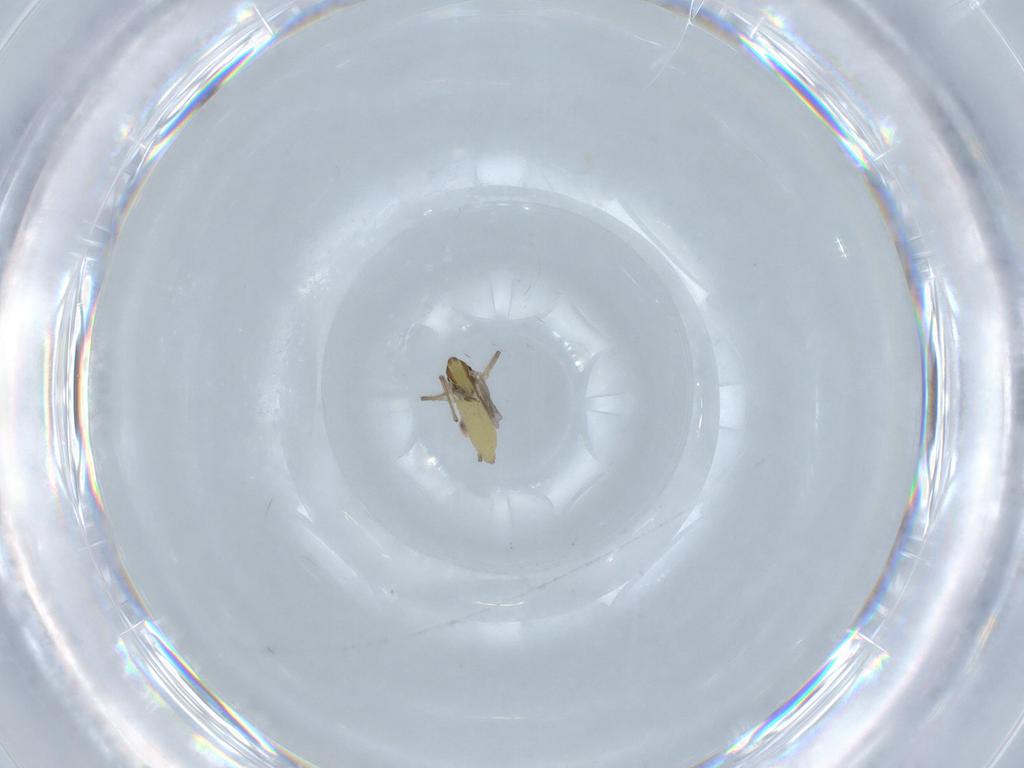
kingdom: Animalia
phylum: Arthropoda
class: Insecta
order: Diptera
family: Chironomidae
